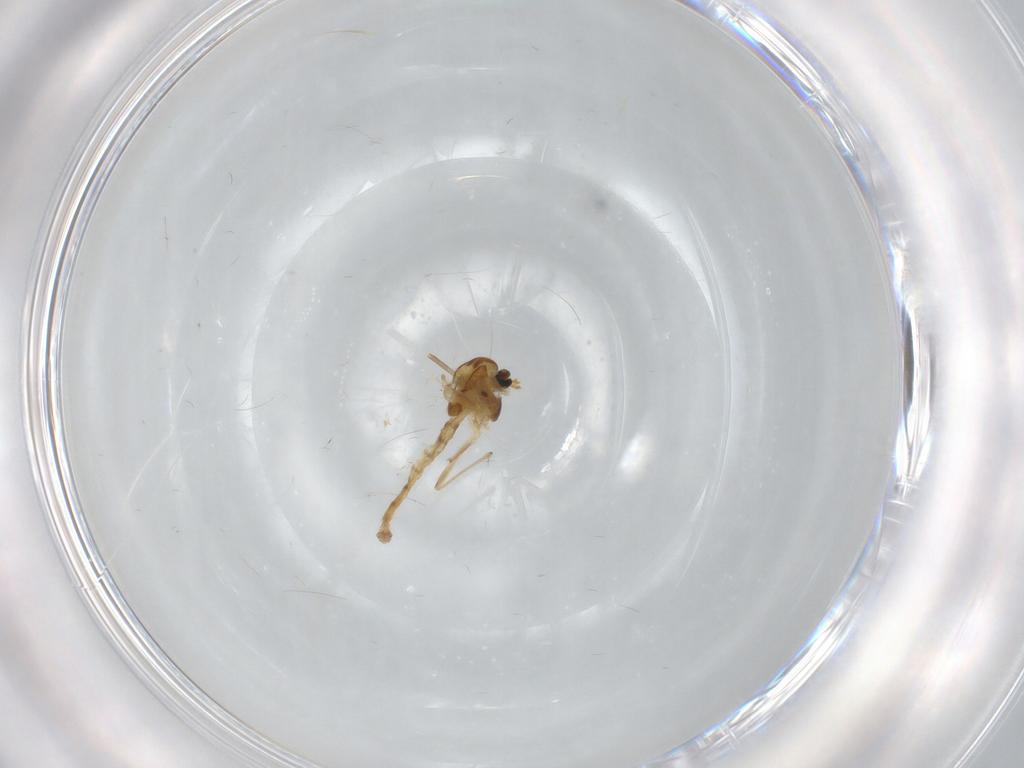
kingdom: Animalia
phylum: Arthropoda
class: Insecta
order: Diptera
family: Chironomidae
